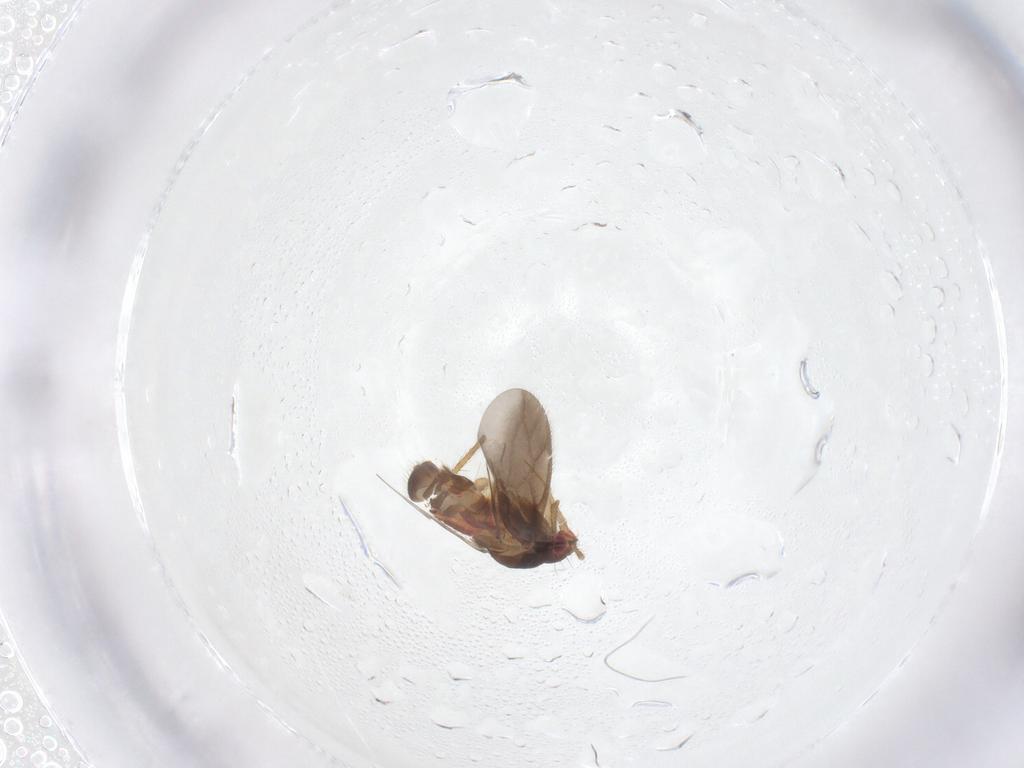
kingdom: Animalia
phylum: Arthropoda
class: Insecta
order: Hemiptera
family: Ceratocombidae
